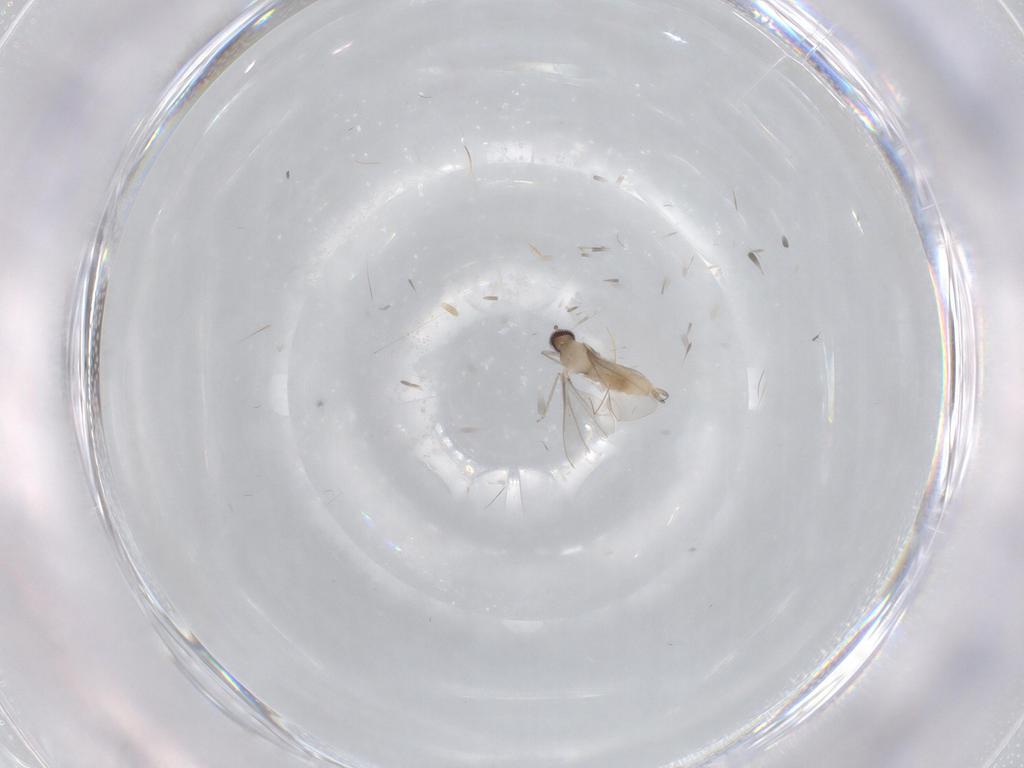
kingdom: Animalia
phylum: Arthropoda
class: Insecta
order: Diptera
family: Cecidomyiidae
